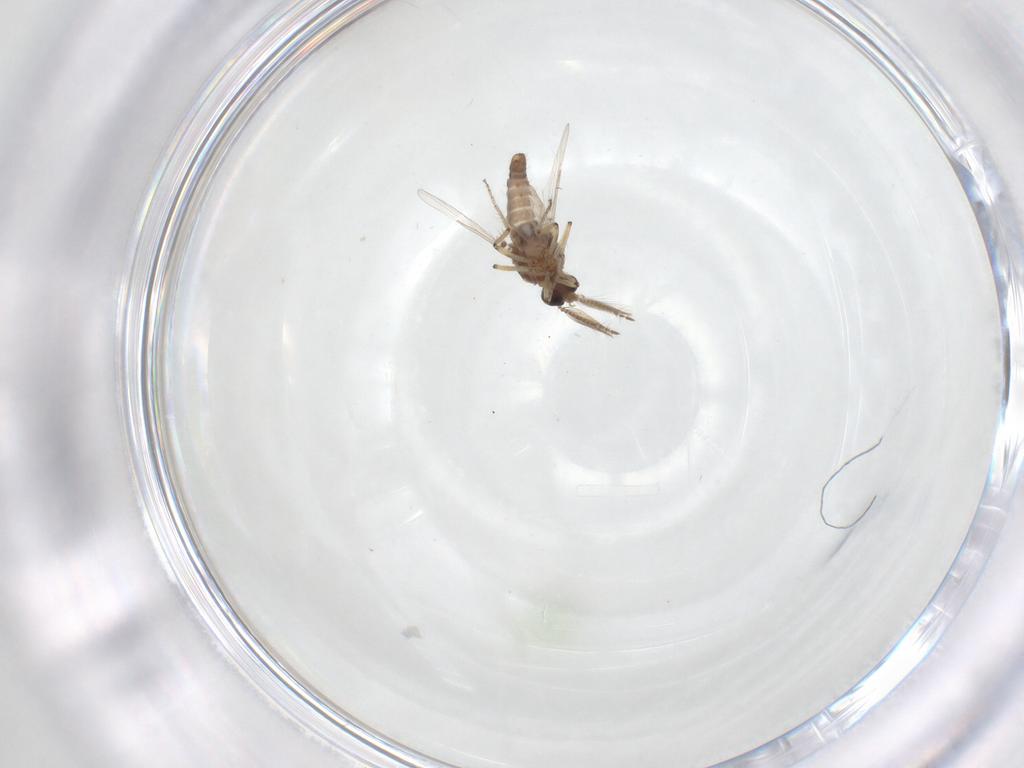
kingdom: Animalia
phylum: Arthropoda
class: Insecta
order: Diptera
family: Ceratopogonidae
